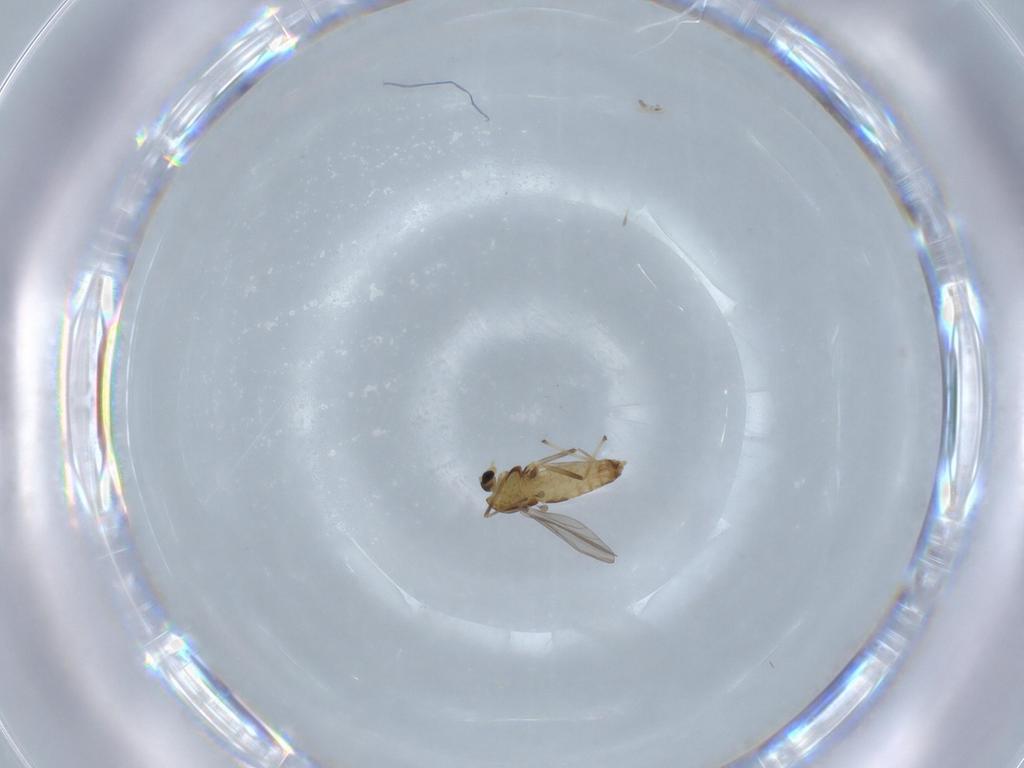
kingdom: Animalia
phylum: Arthropoda
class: Insecta
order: Diptera
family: Chironomidae
